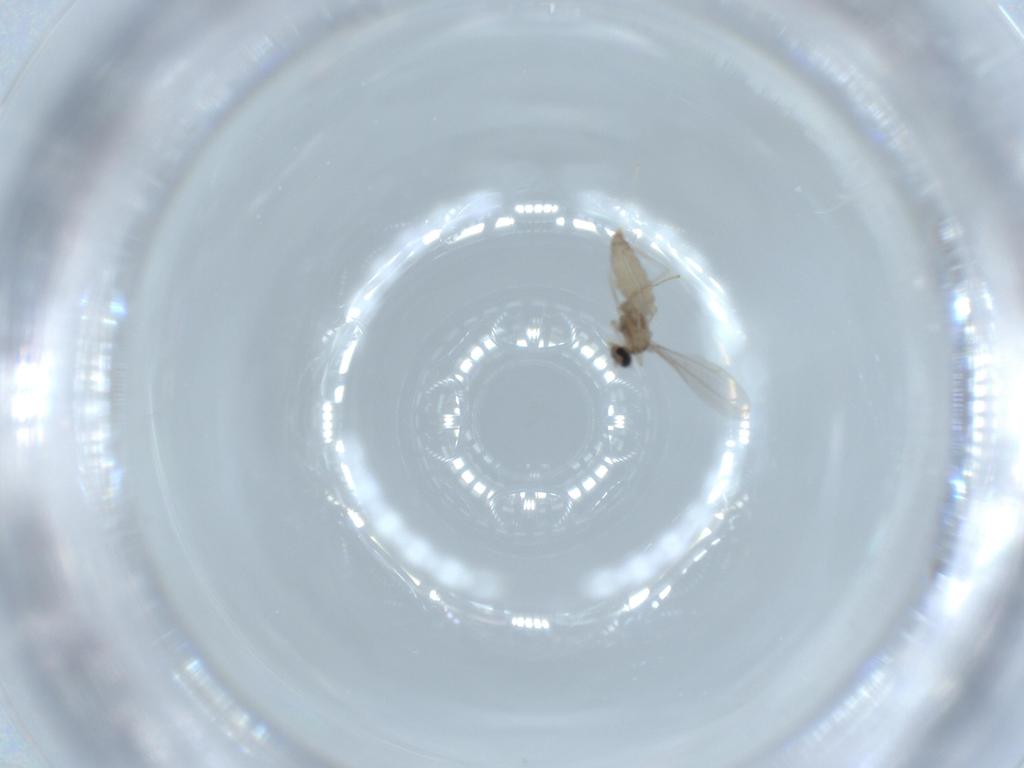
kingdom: Animalia
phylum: Arthropoda
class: Insecta
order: Diptera
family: Cecidomyiidae
